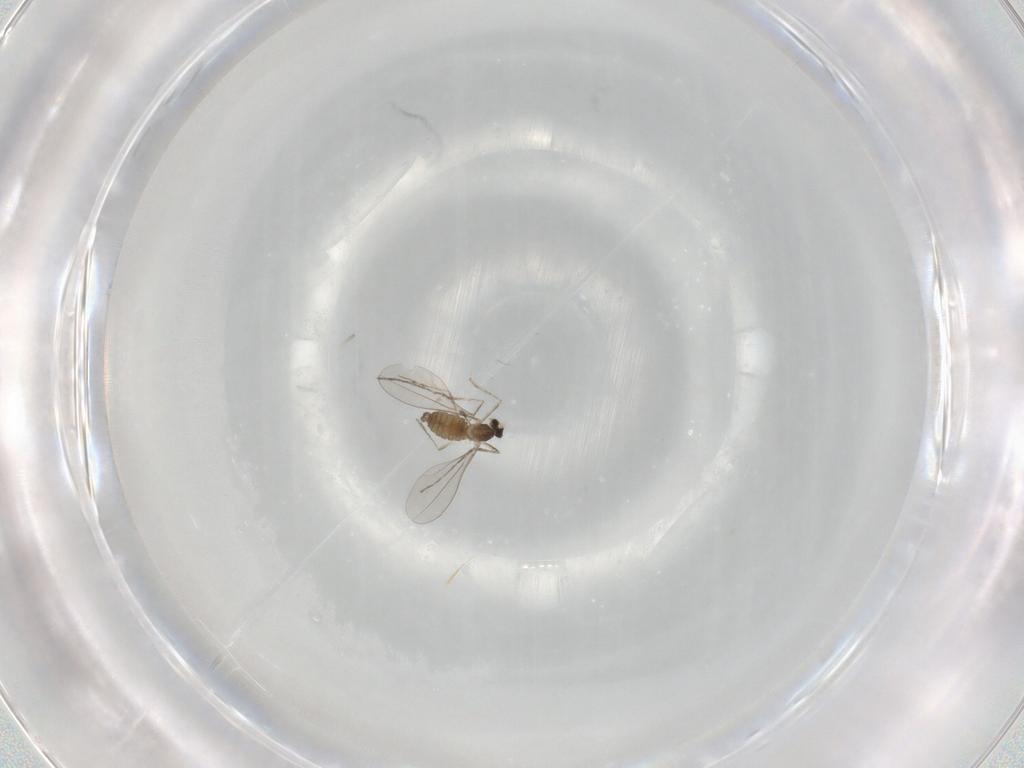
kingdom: Animalia
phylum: Arthropoda
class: Insecta
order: Diptera
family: Cecidomyiidae
